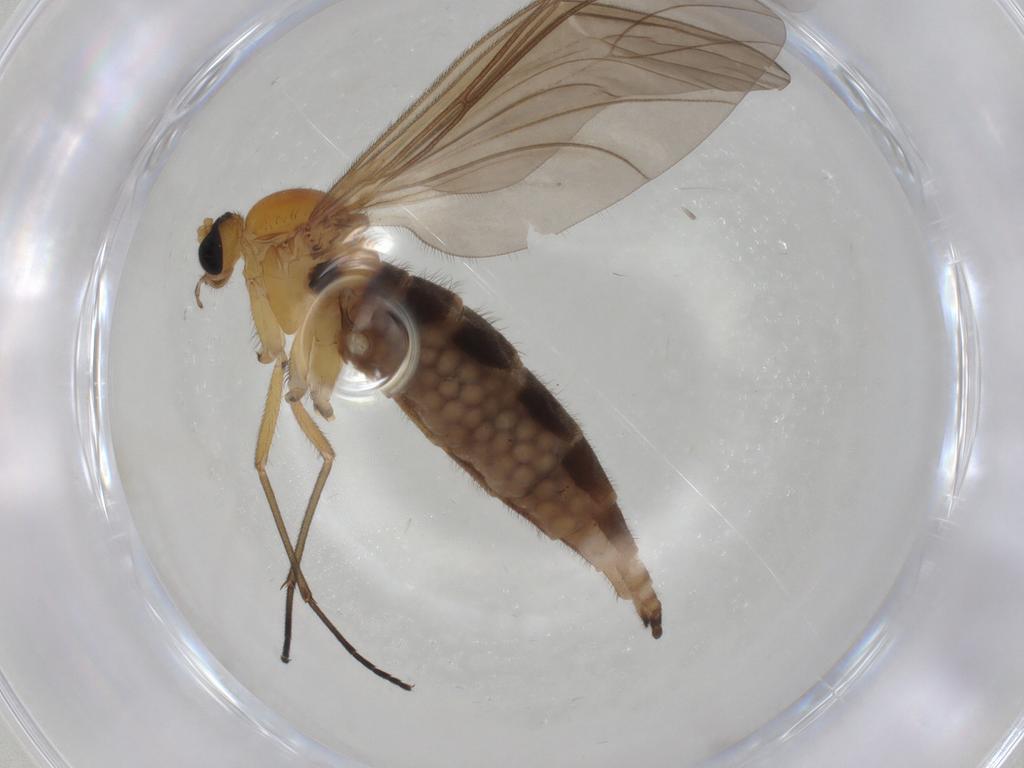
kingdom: Animalia
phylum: Arthropoda
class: Insecta
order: Diptera
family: Sciaridae
